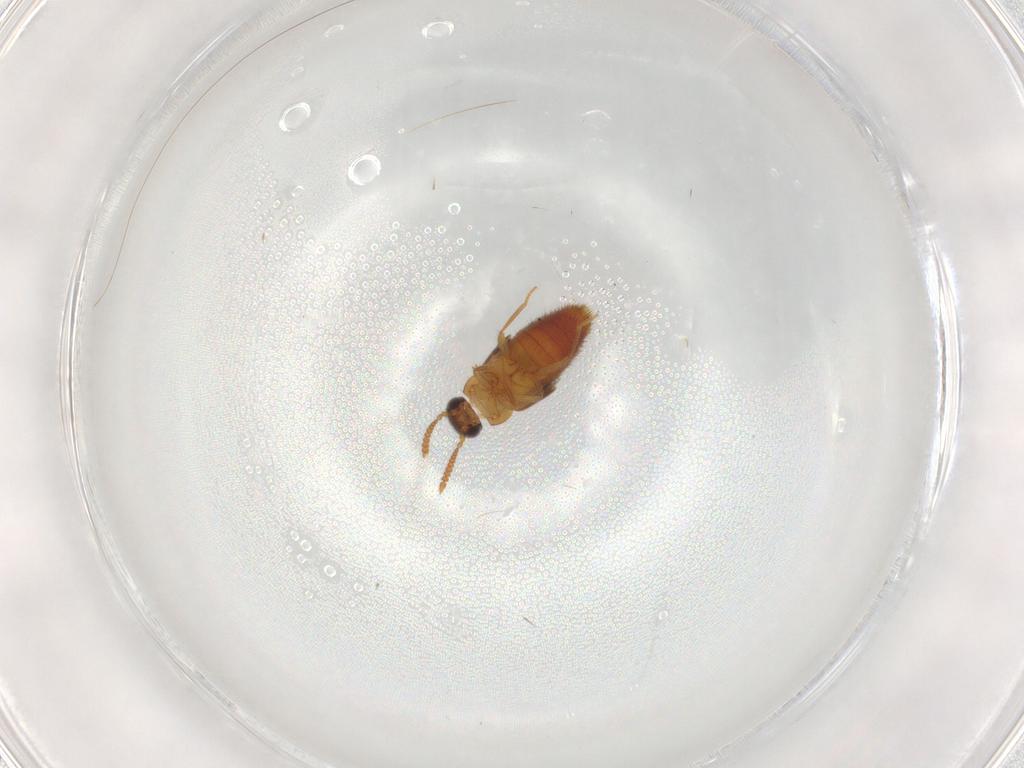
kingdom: Animalia
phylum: Arthropoda
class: Insecta
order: Coleoptera
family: Staphylinidae
